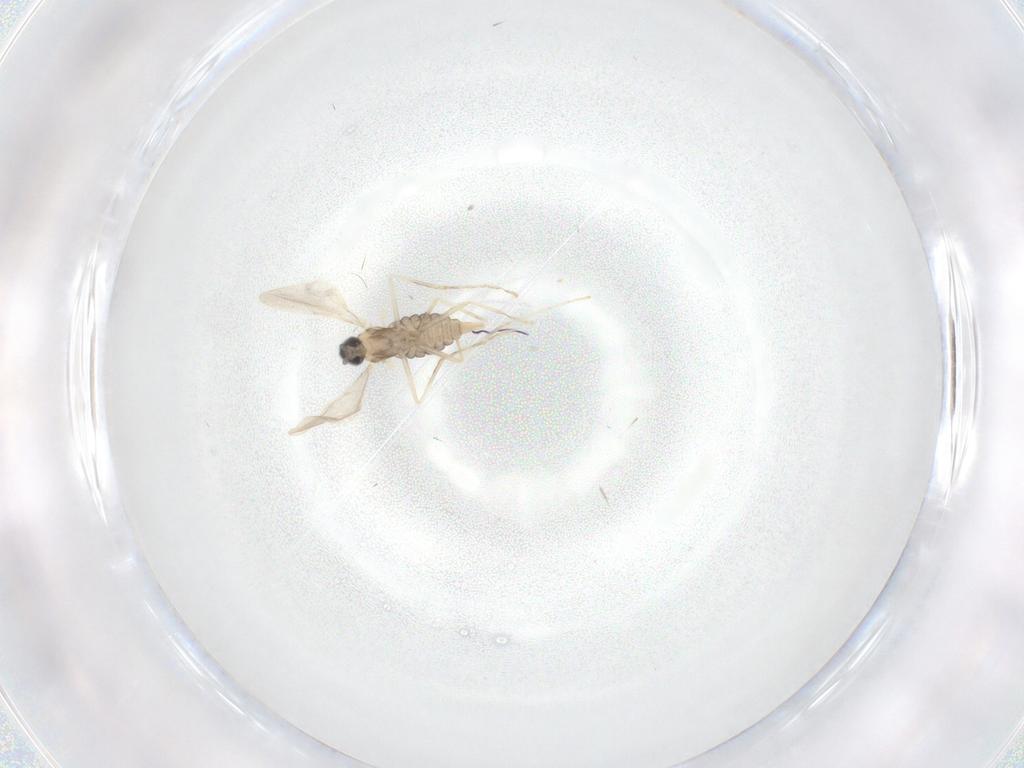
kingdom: Animalia
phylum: Arthropoda
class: Insecta
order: Diptera
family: Cecidomyiidae
